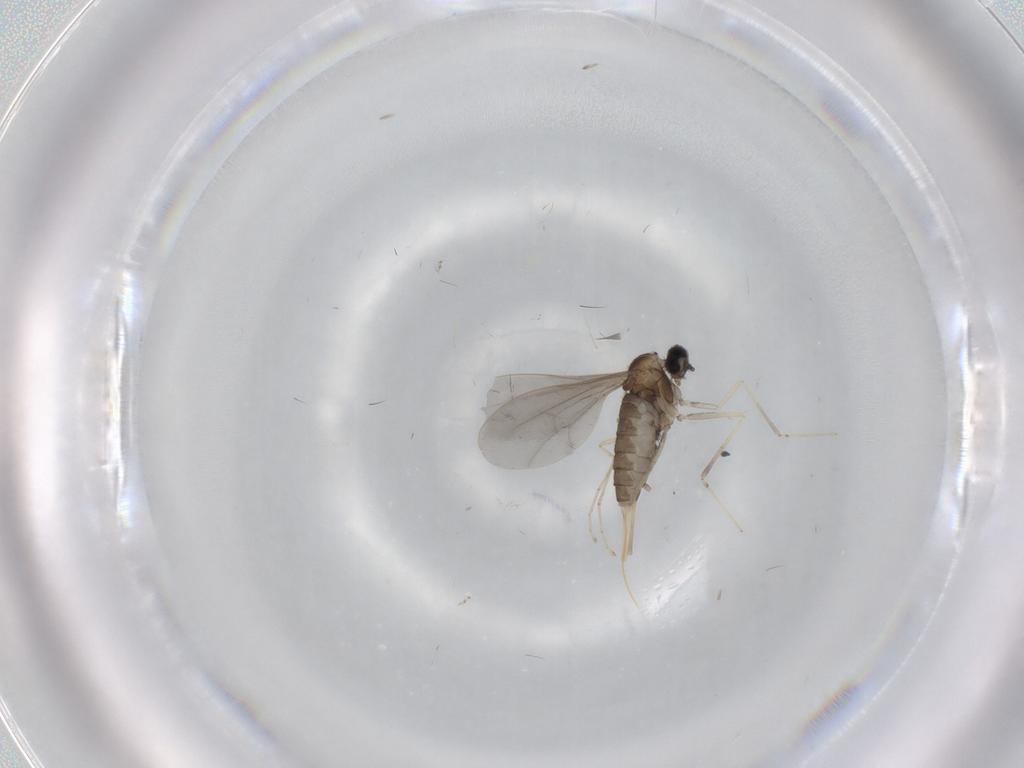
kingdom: Animalia
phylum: Arthropoda
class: Insecta
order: Diptera
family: Cecidomyiidae
